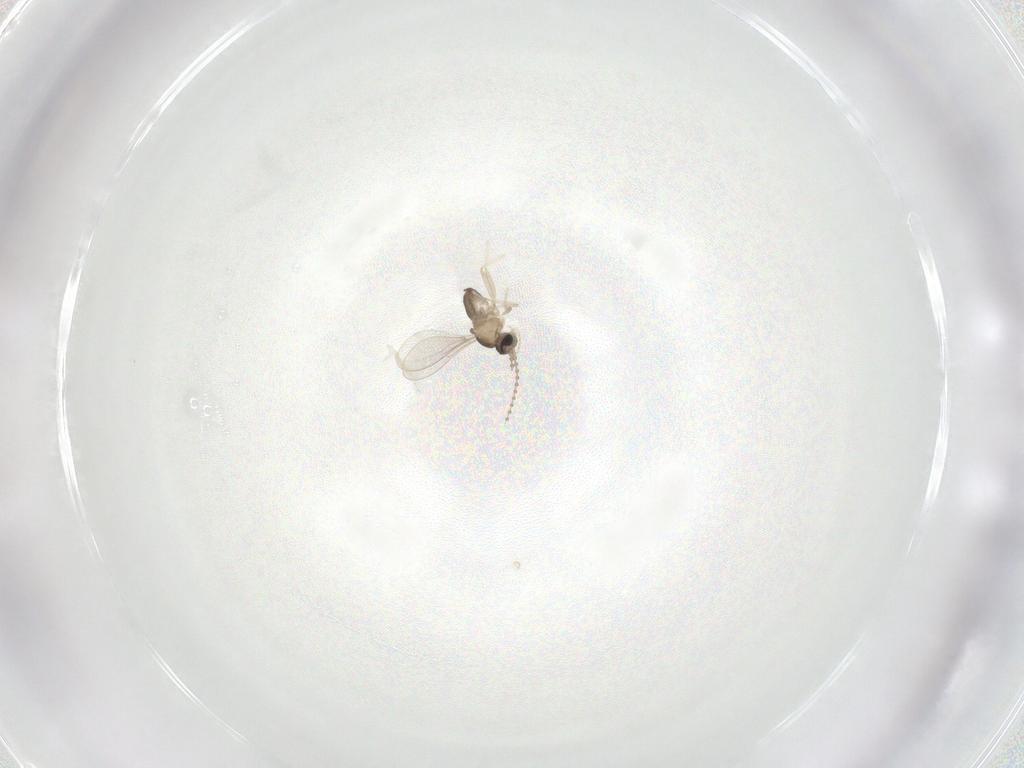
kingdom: Animalia
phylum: Arthropoda
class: Insecta
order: Diptera
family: Cecidomyiidae
